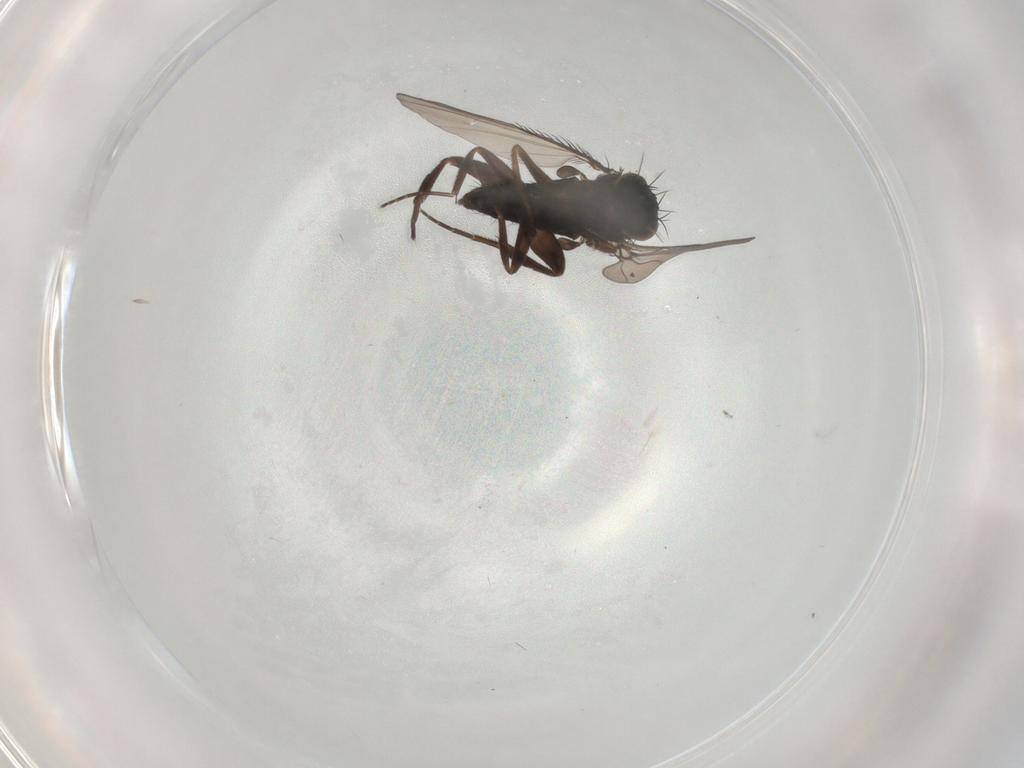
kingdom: Animalia
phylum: Arthropoda
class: Insecta
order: Diptera
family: Phoridae
